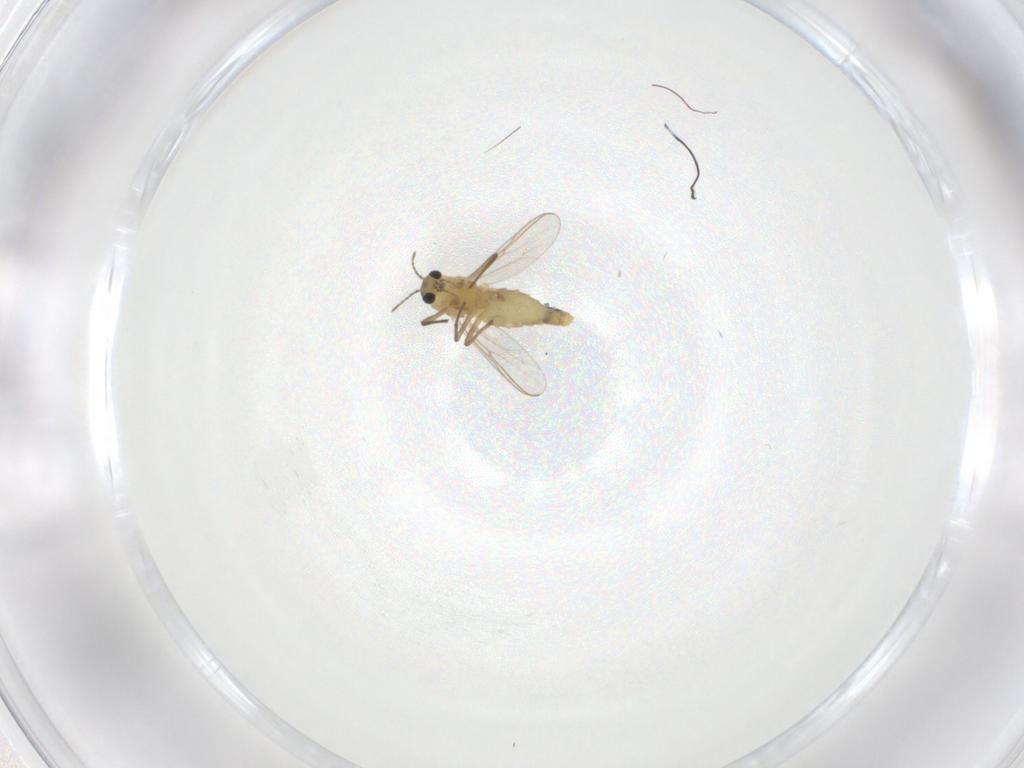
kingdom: Animalia
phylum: Arthropoda
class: Insecta
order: Diptera
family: Chironomidae
